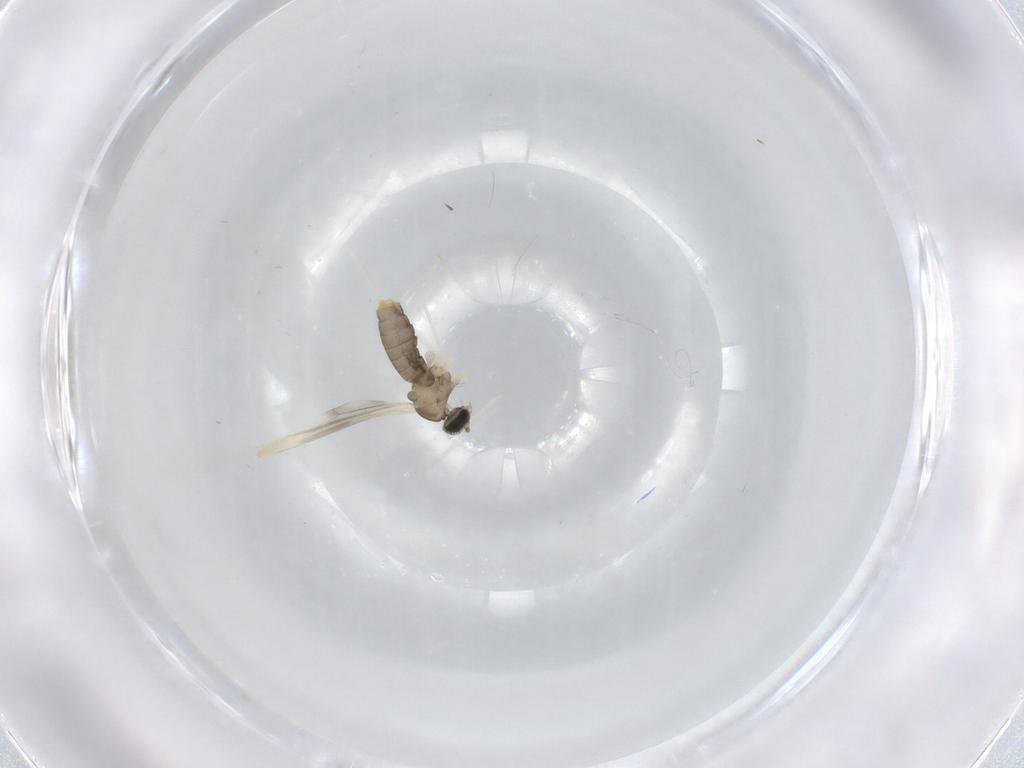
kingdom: Animalia
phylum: Arthropoda
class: Insecta
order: Diptera
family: Cecidomyiidae
